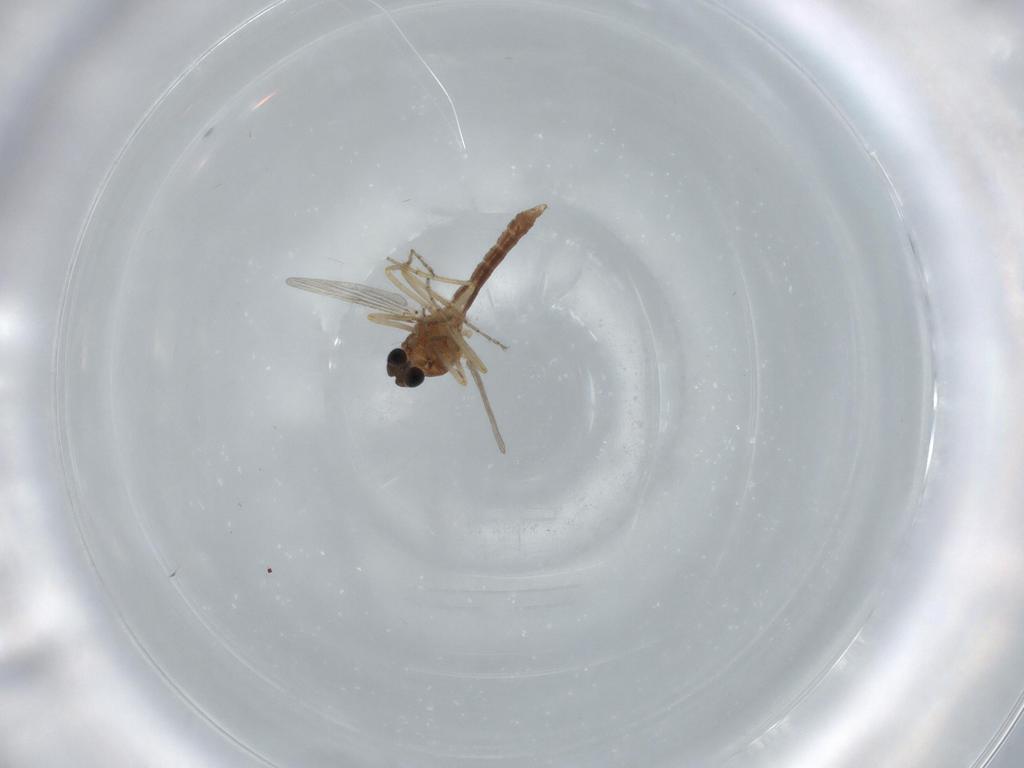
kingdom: Animalia
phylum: Arthropoda
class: Insecta
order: Diptera
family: Ceratopogonidae
